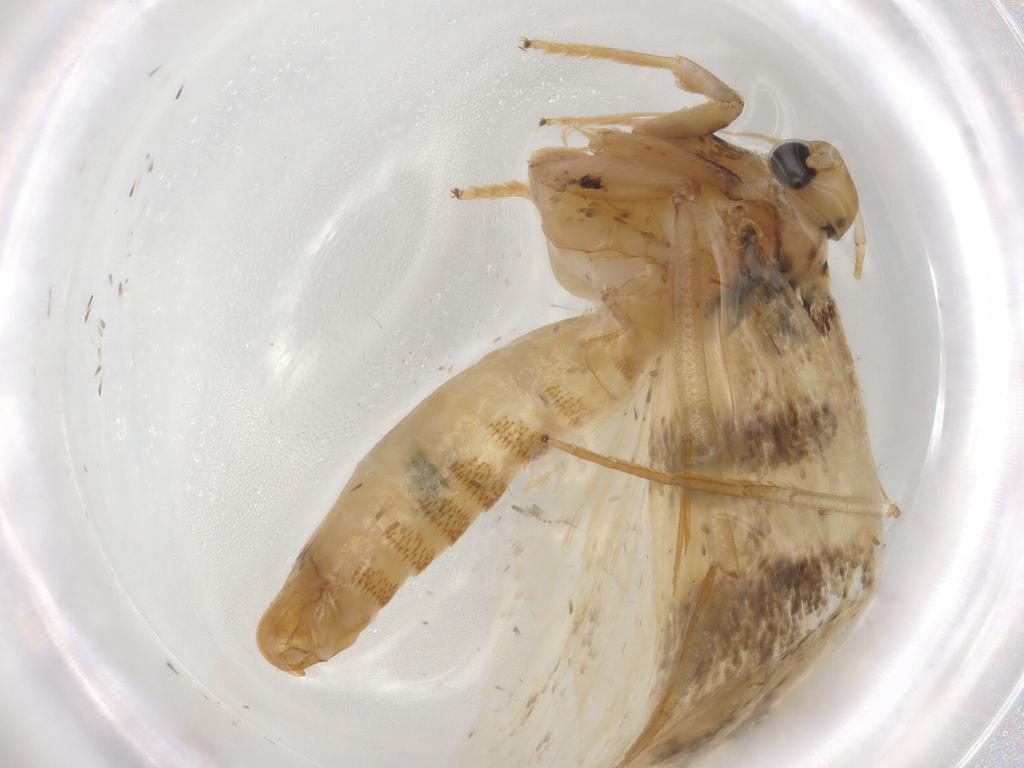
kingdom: Animalia
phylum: Arthropoda
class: Insecta
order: Lepidoptera
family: Lecithoceridae
